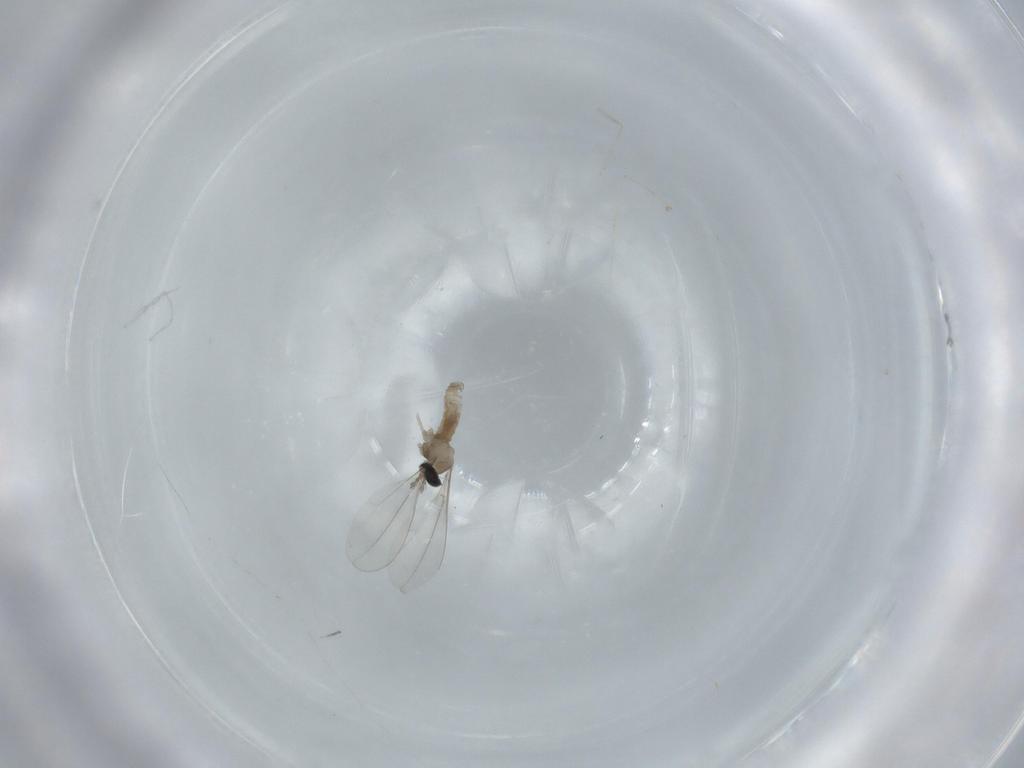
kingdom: Animalia
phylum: Arthropoda
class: Insecta
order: Diptera
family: Cecidomyiidae
